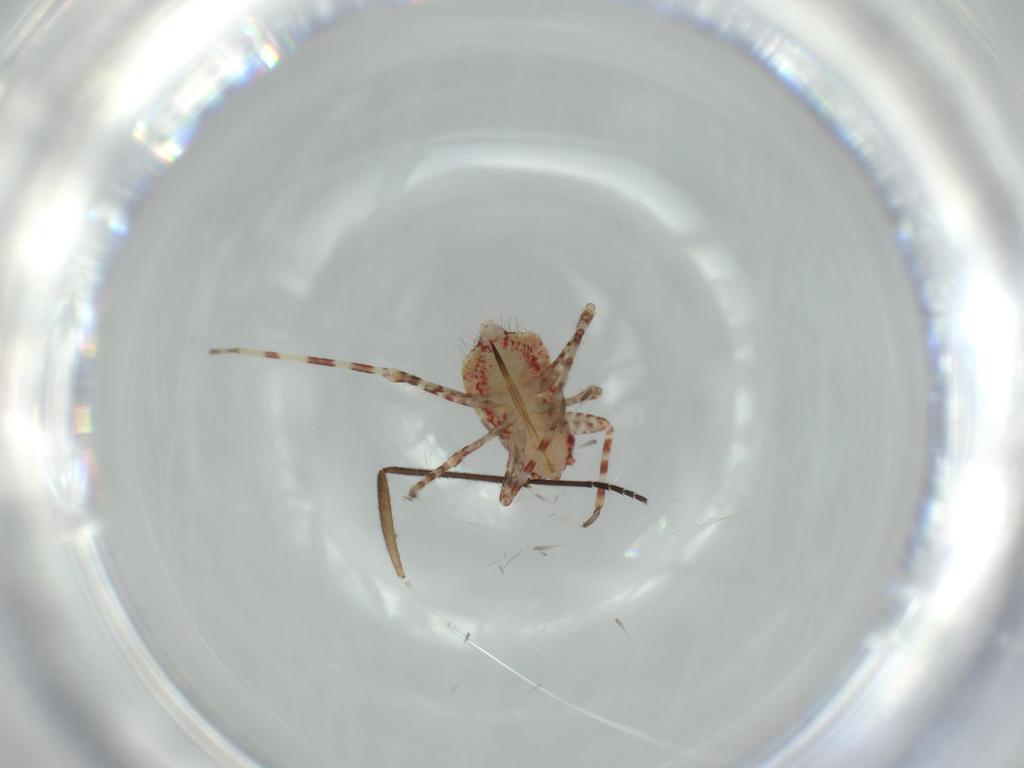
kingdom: Animalia
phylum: Arthropoda
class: Insecta
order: Hemiptera
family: Miridae
